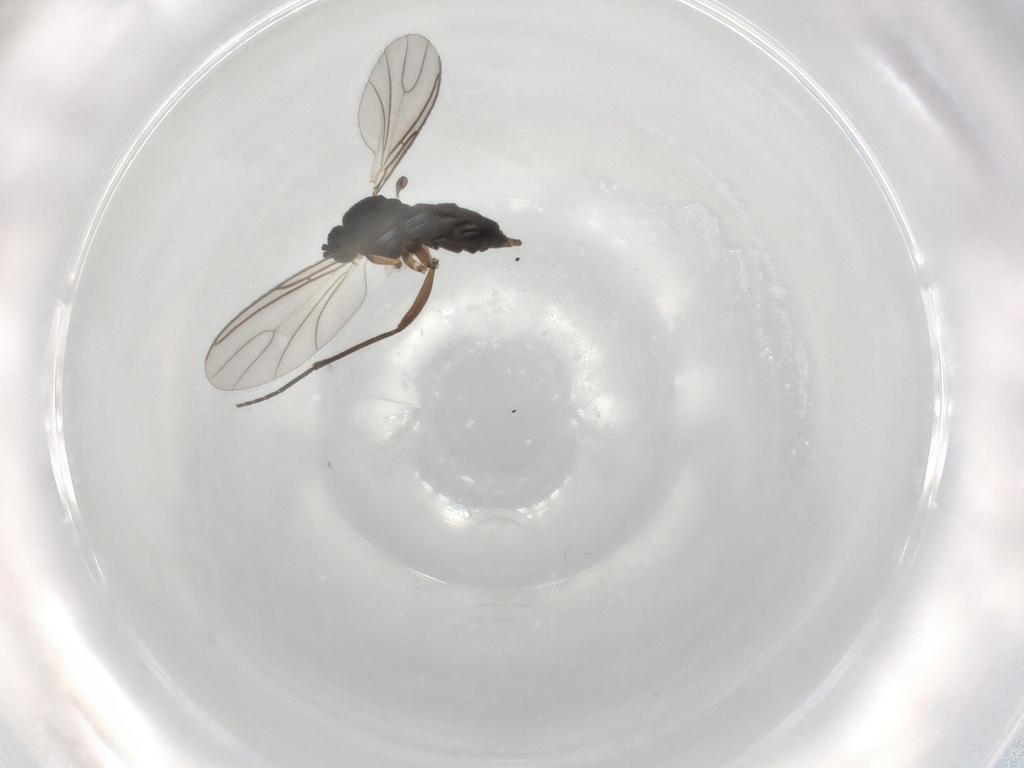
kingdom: Animalia
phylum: Arthropoda
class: Insecta
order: Diptera
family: Sciaridae
